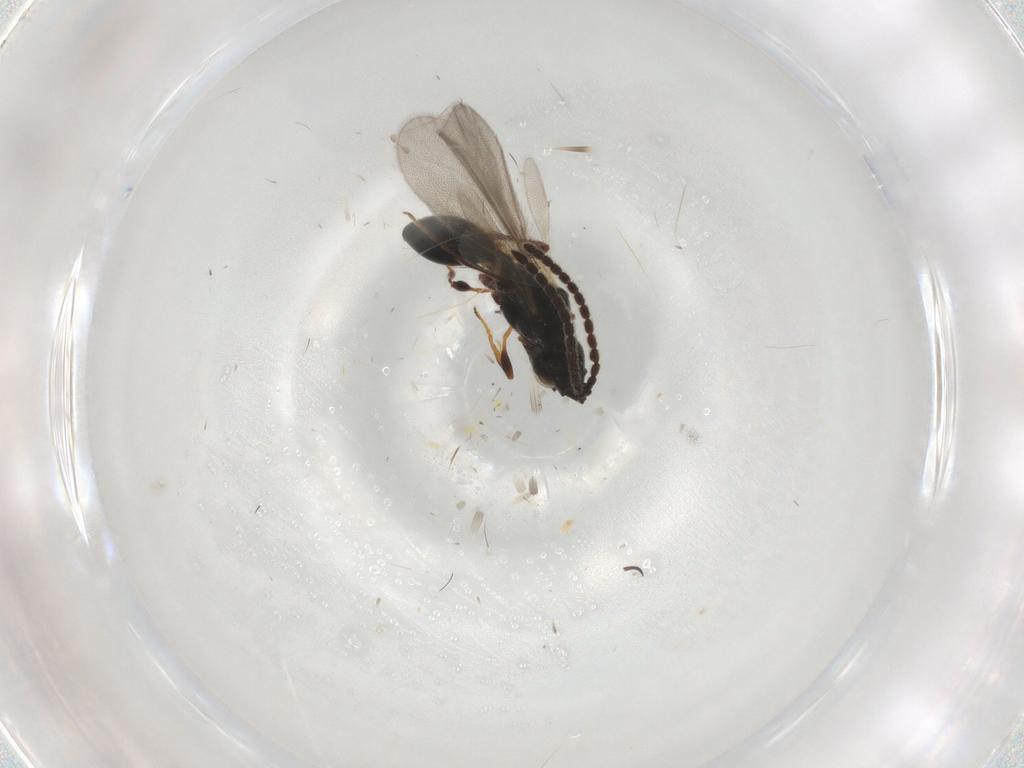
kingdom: Animalia
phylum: Arthropoda
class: Insecta
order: Hymenoptera
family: Diapriidae
